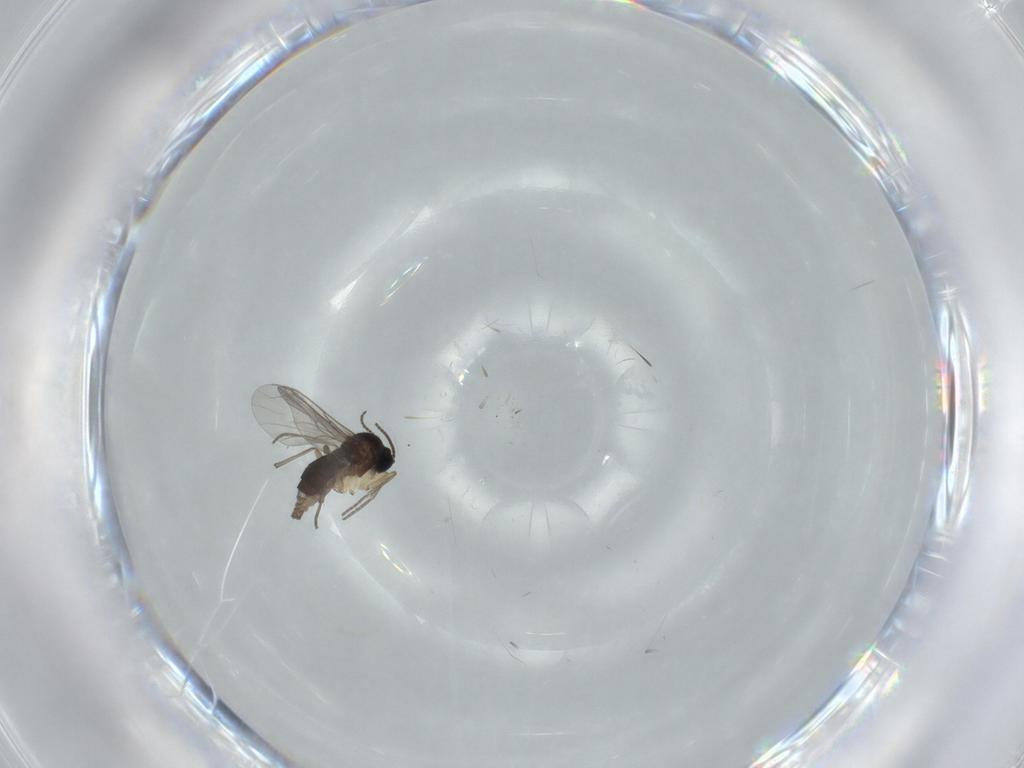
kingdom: Animalia
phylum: Arthropoda
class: Insecta
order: Diptera
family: Sciaridae
